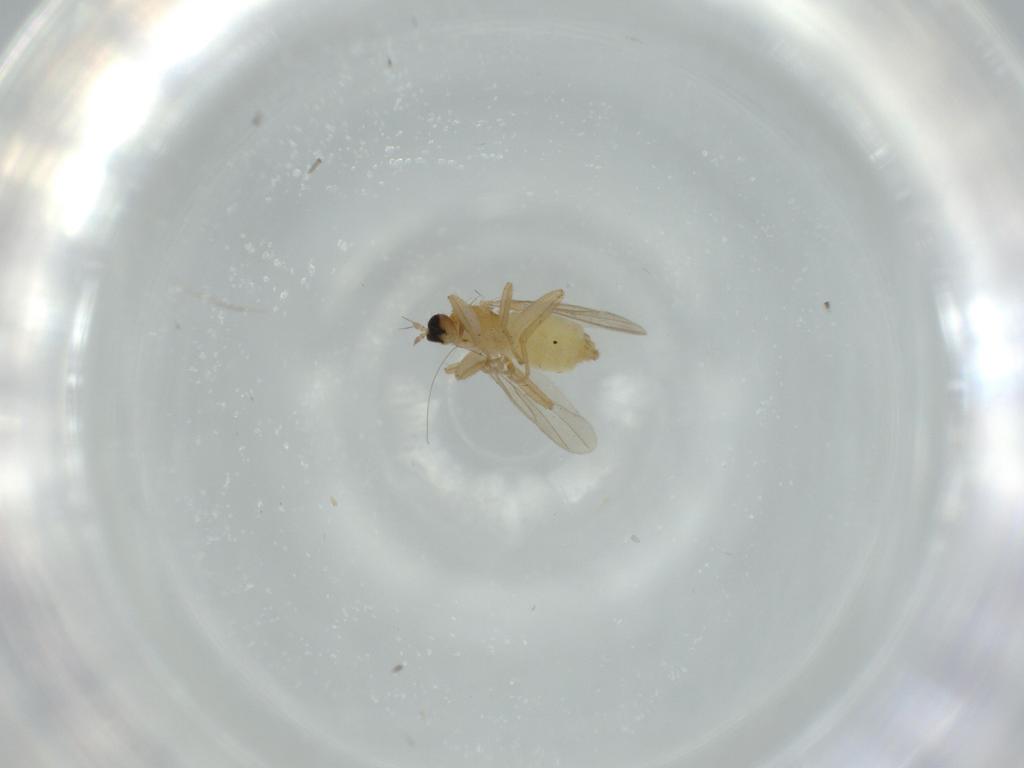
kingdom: Animalia
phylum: Arthropoda
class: Insecta
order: Diptera
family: Hybotidae
